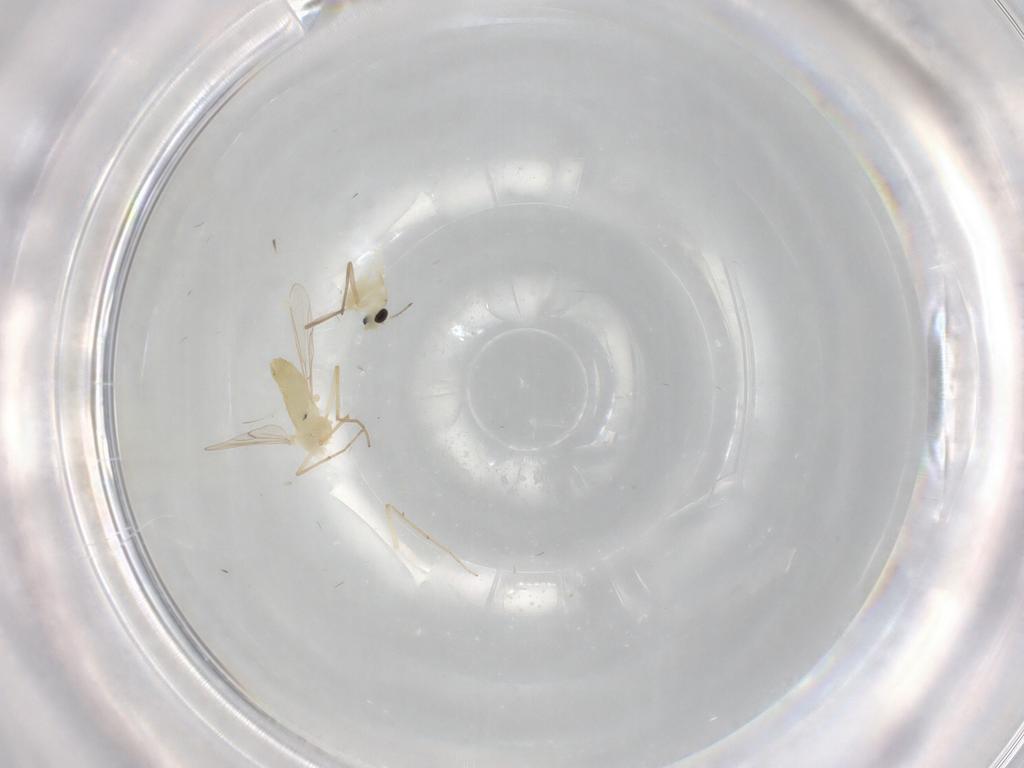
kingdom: Animalia
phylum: Arthropoda
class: Insecta
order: Diptera
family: Chironomidae
